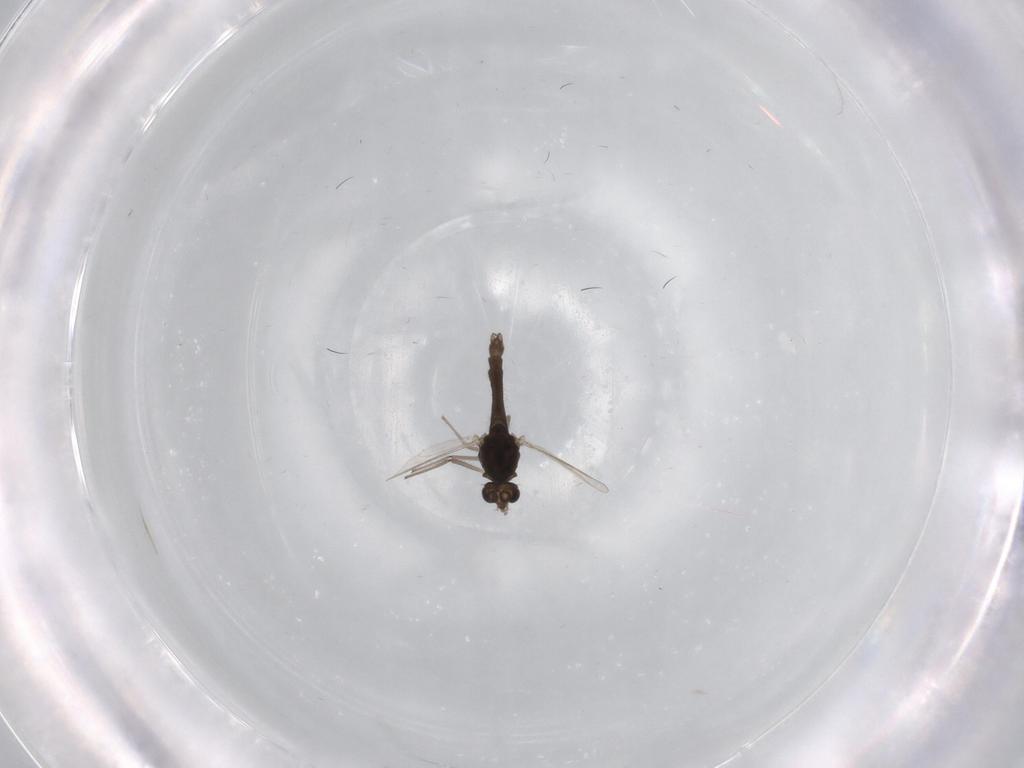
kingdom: Animalia
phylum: Arthropoda
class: Insecta
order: Diptera
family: Chironomidae
